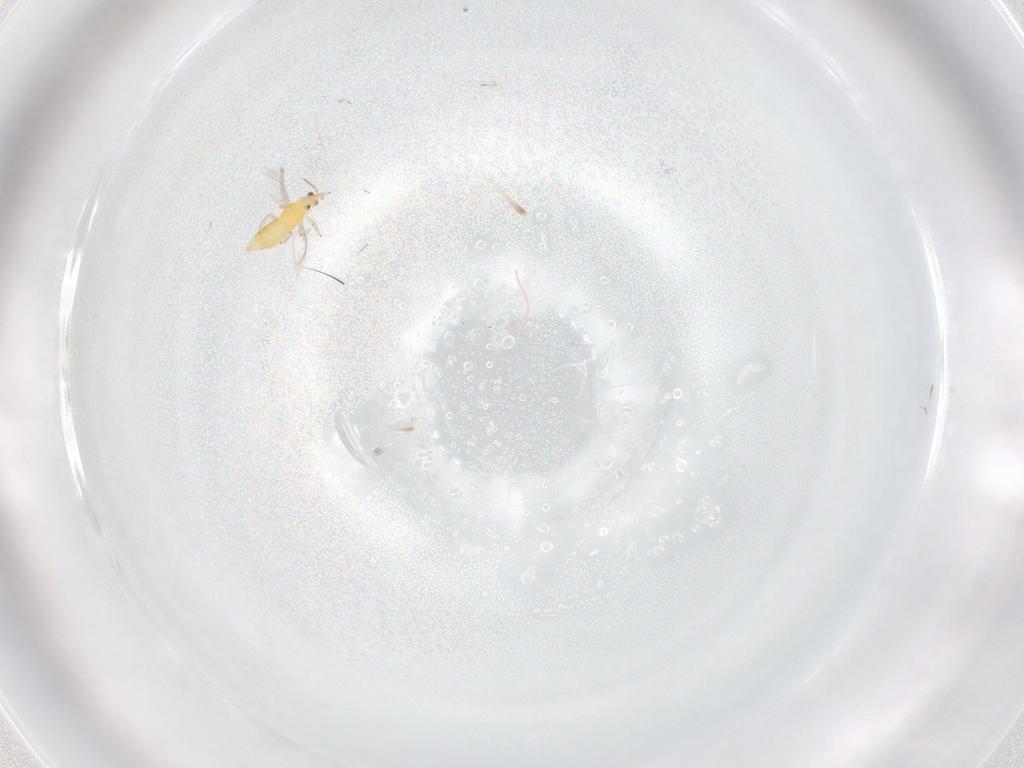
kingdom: Animalia
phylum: Arthropoda
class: Insecta
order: Thysanoptera
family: Thripidae
